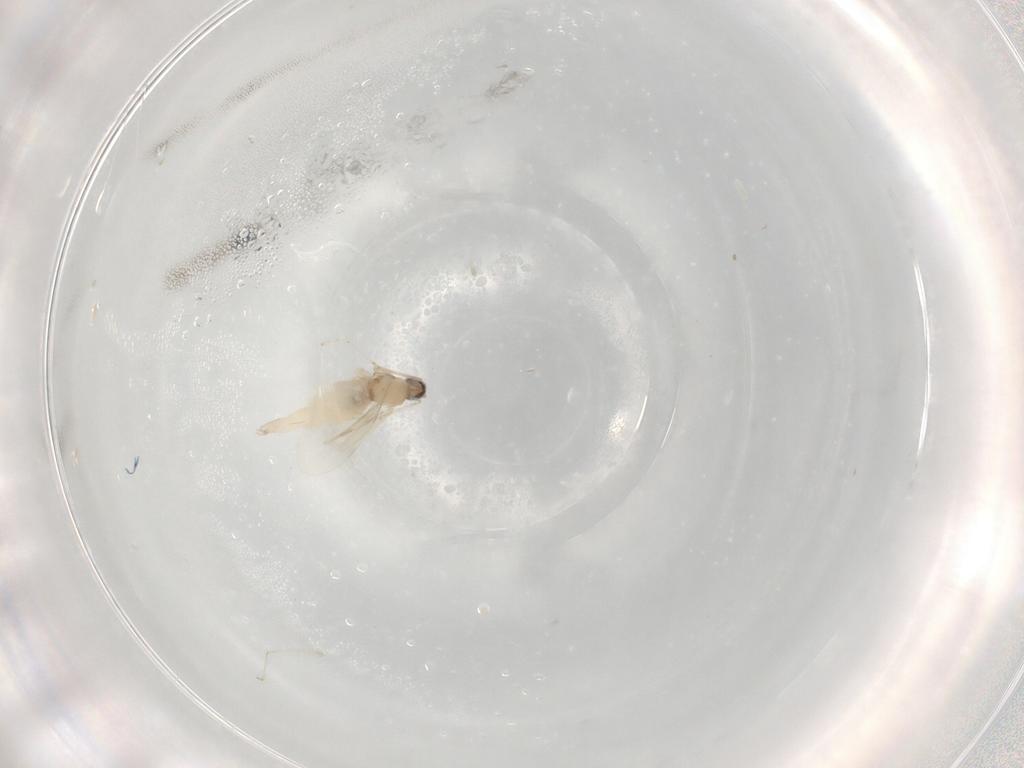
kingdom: Animalia
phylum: Arthropoda
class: Insecta
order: Diptera
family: Cecidomyiidae
